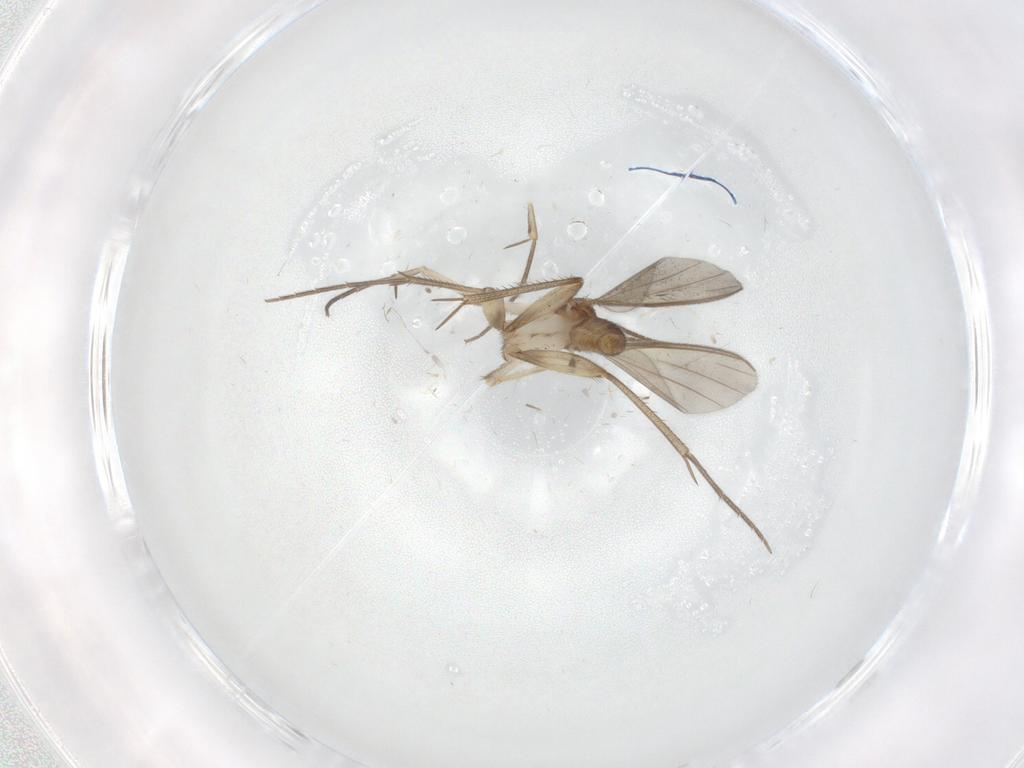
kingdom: Animalia
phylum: Arthropoda
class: Insecta
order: Diptera
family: Mycetophilidae
